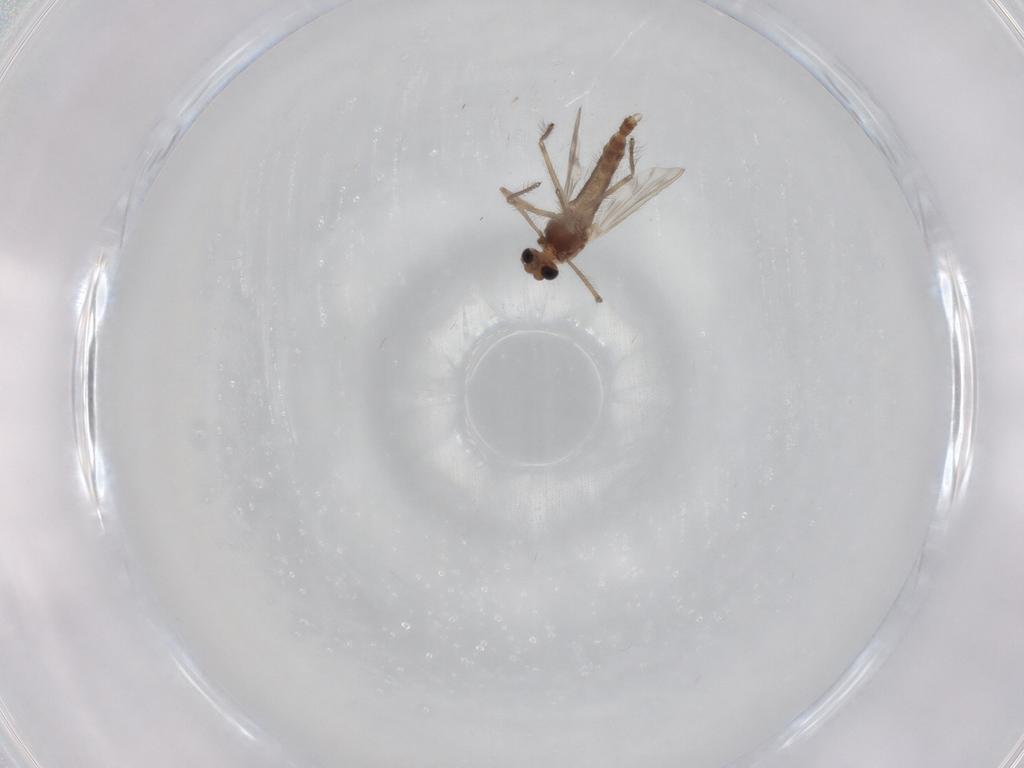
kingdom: Animalia
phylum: Arthropoda
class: Insecta
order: Diptera
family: Chironomidae
